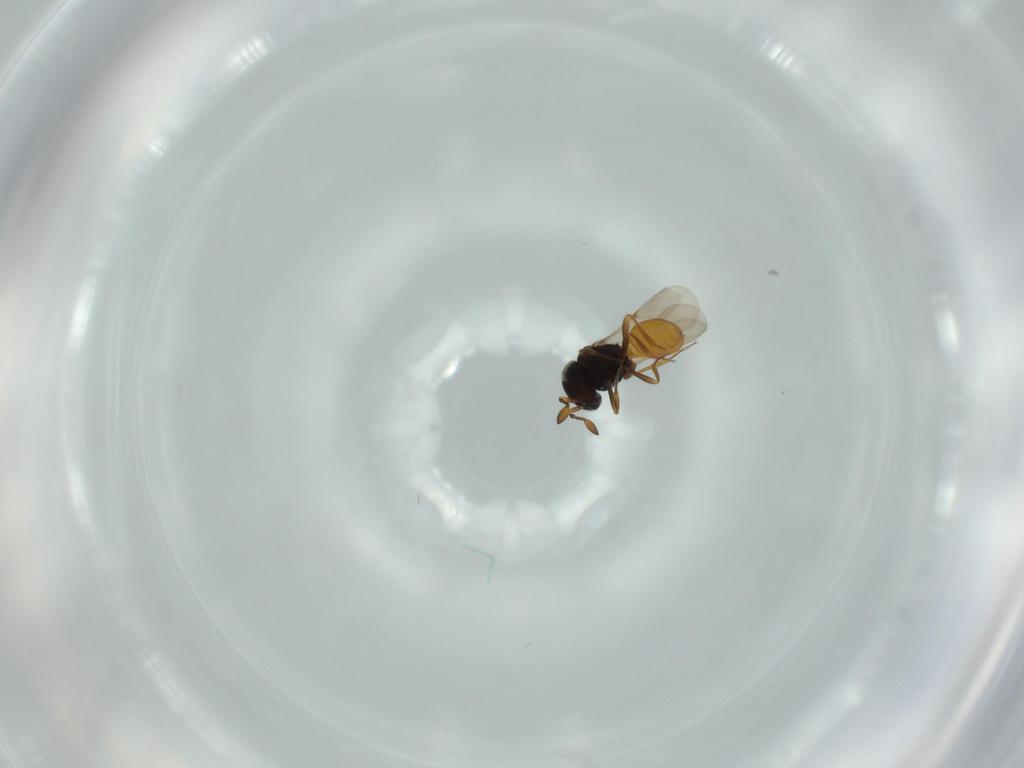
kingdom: Animalia
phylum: Arthropoda
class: Insecta
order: Hymenoptera
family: Scelionidae
